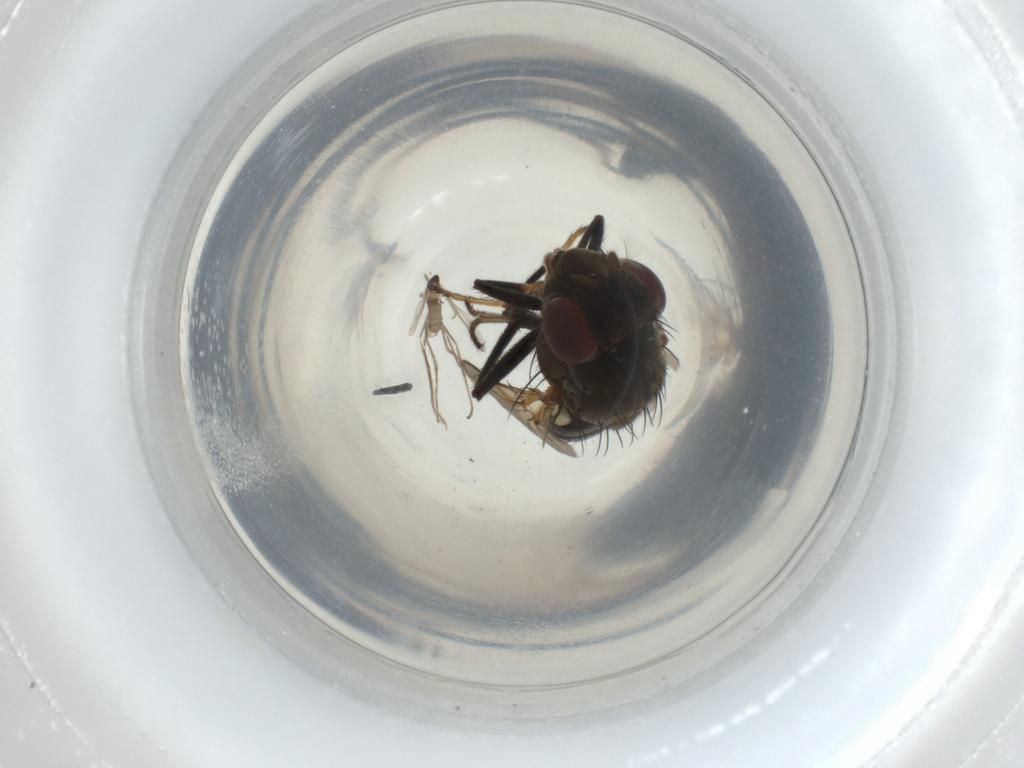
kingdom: Animalia
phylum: Arthropoda
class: Insecta
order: Diptera
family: Ephydridae
